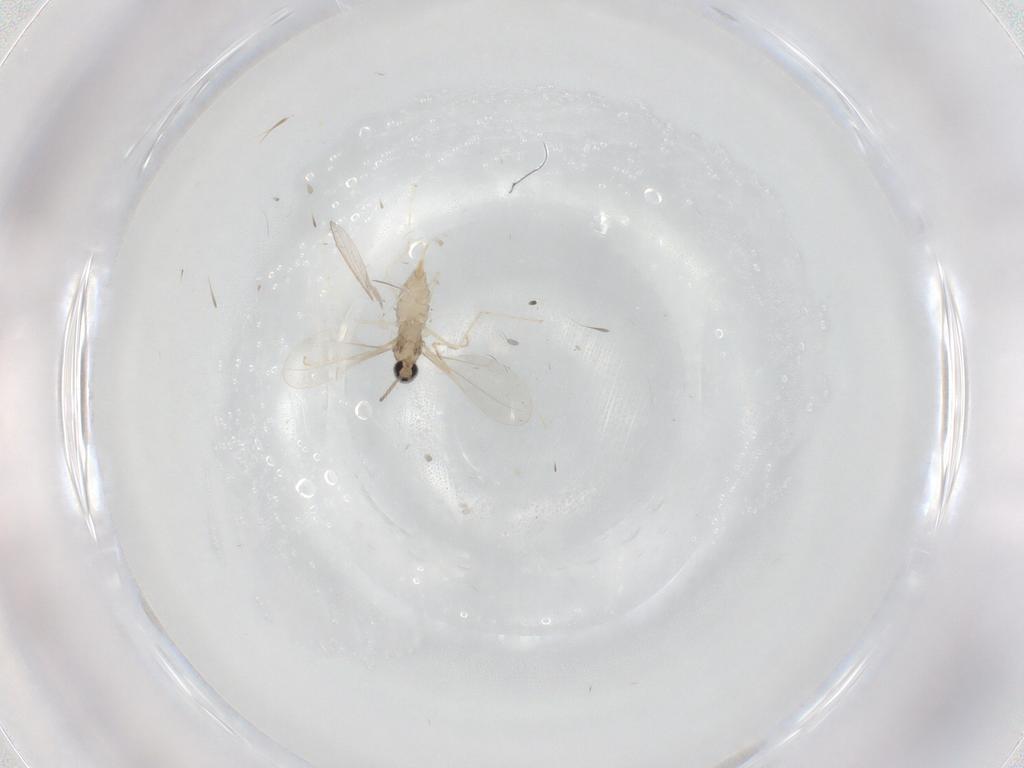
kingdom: Animalia
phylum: Arthropoda
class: Insecta
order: Diptera
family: Cecidomyiidae
